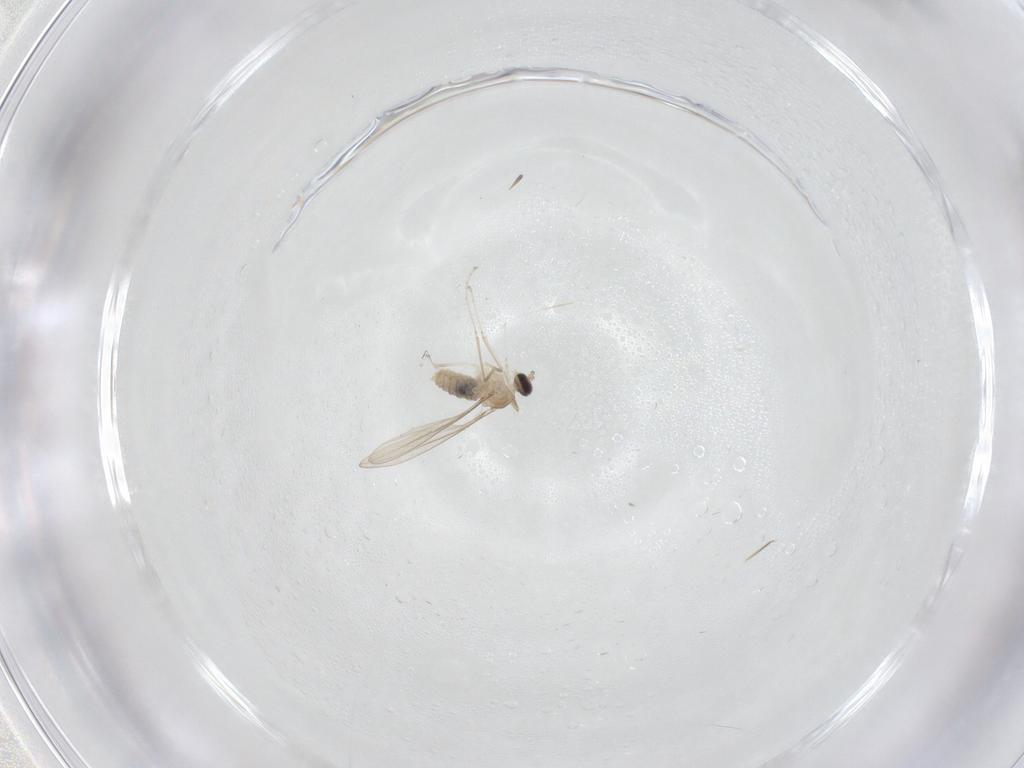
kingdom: Animalia
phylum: Arthropoda
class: Insecta
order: Diptera
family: Cecidomyiidae
